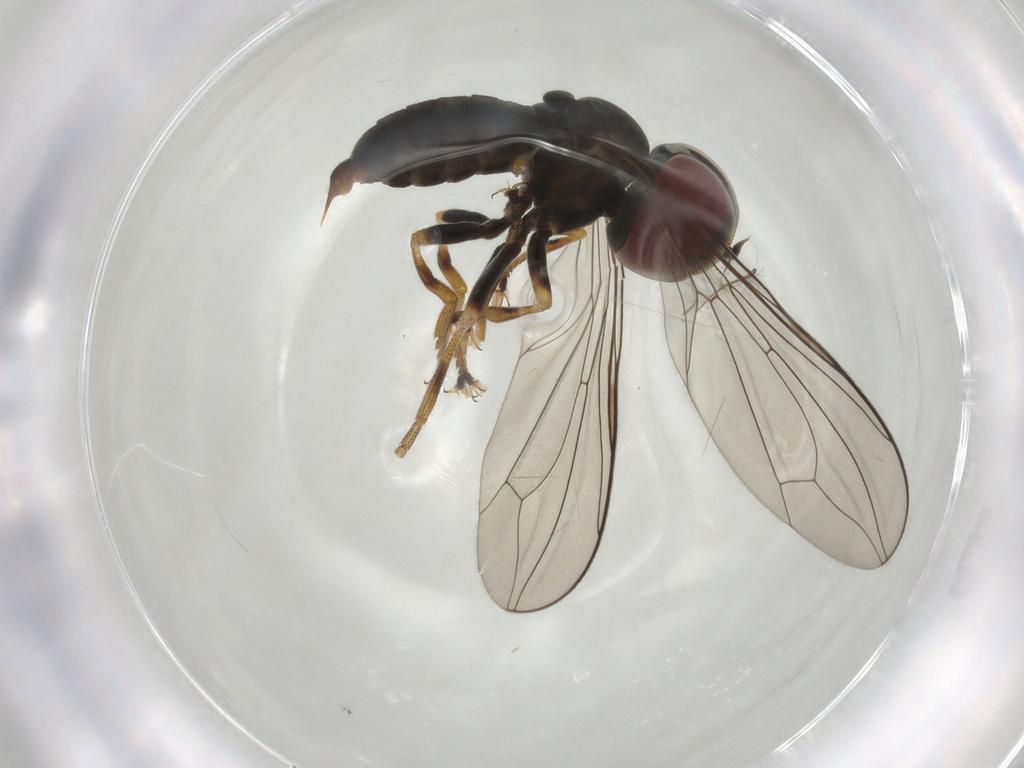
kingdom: Animalia
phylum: Arthropoda
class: Insecta
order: Diptera
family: Pipunculidae
